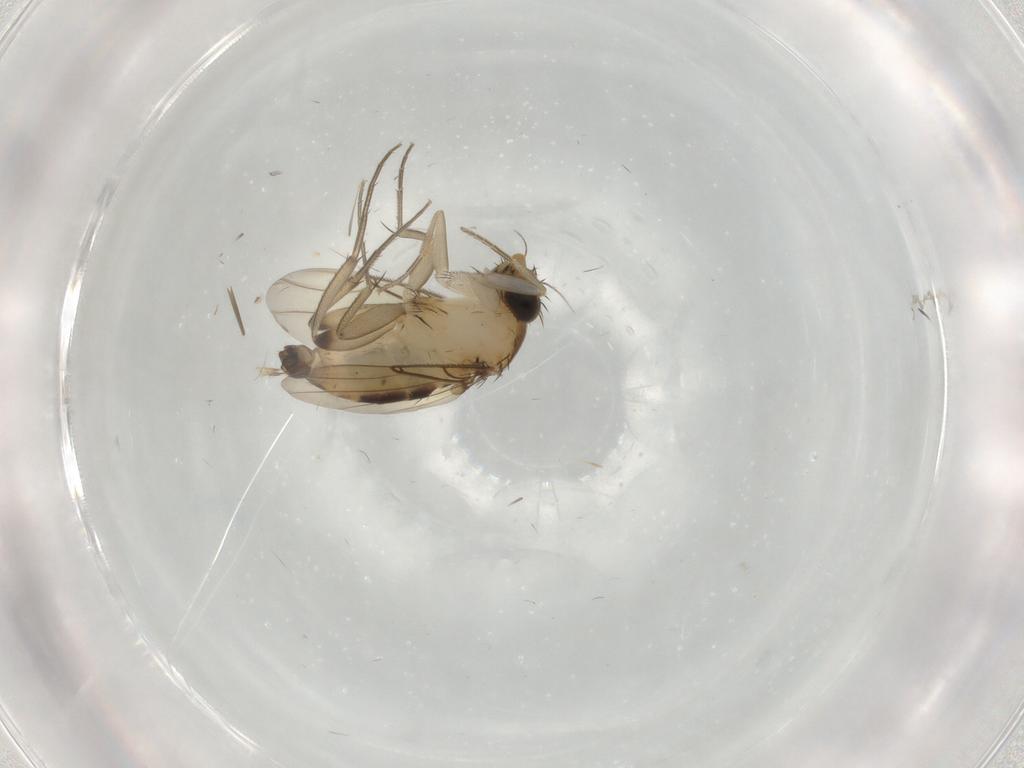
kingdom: Animalia
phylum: Arthropoda
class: Insecta
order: Diptera
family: Phoridae
